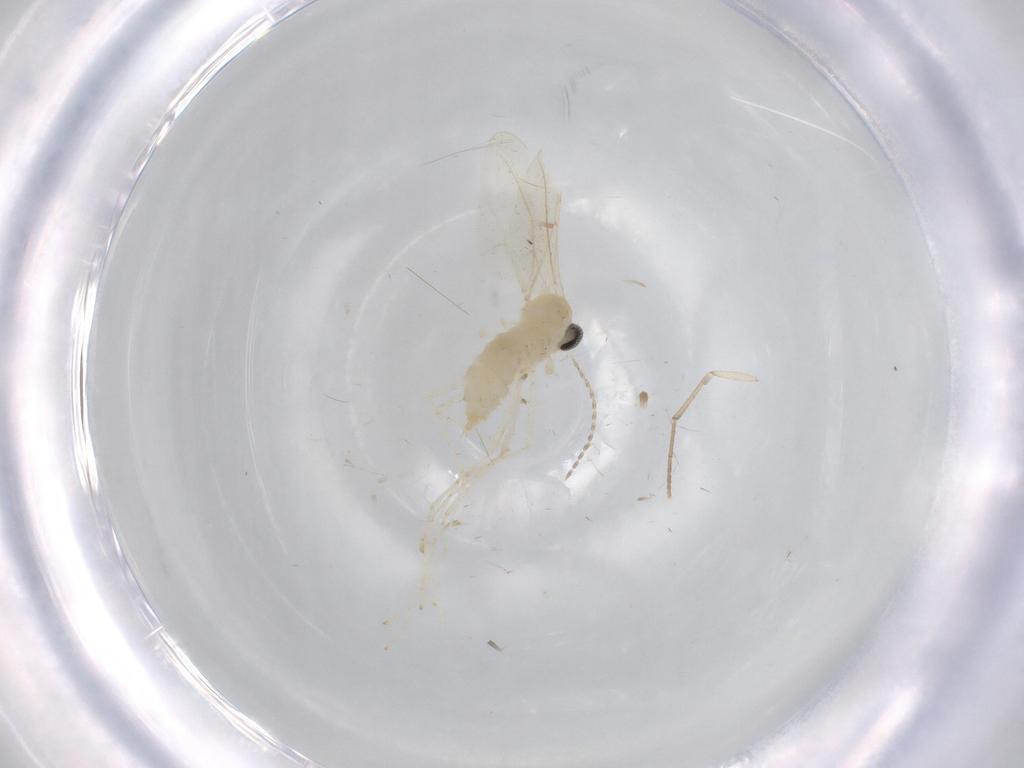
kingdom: Animalia
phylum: Arthropoda
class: Insecta
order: Diptera
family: Cecidomyiidae
